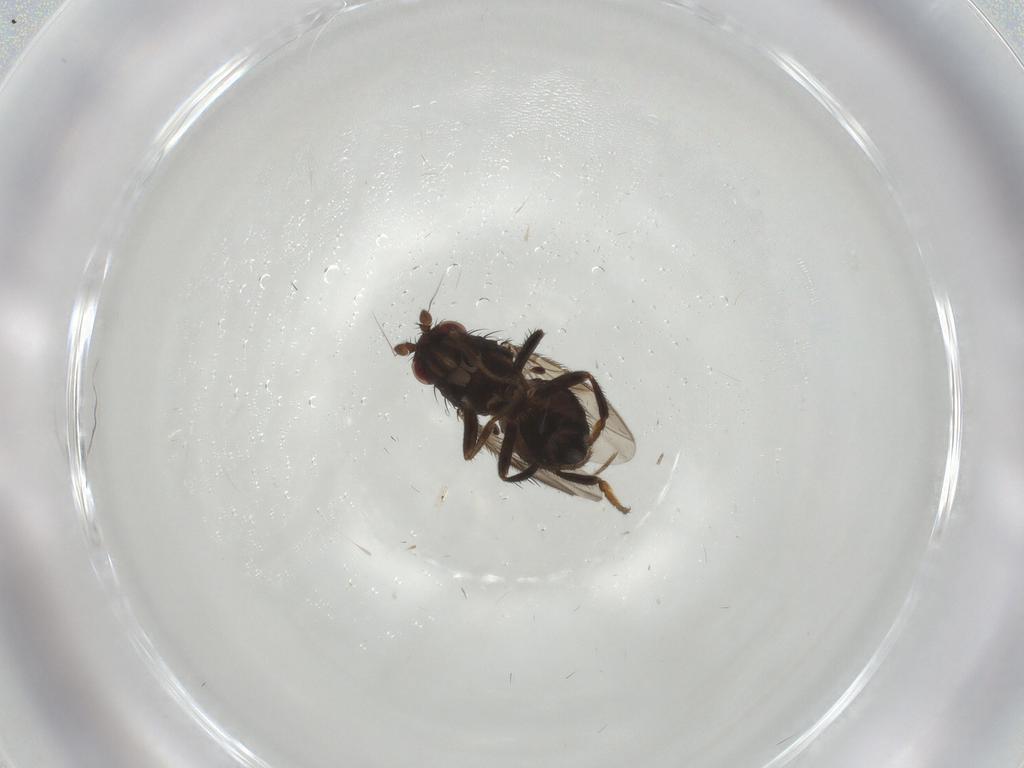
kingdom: Animalia
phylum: Arthropoda
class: Insecta
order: Diptera
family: Sphaeroceridae
